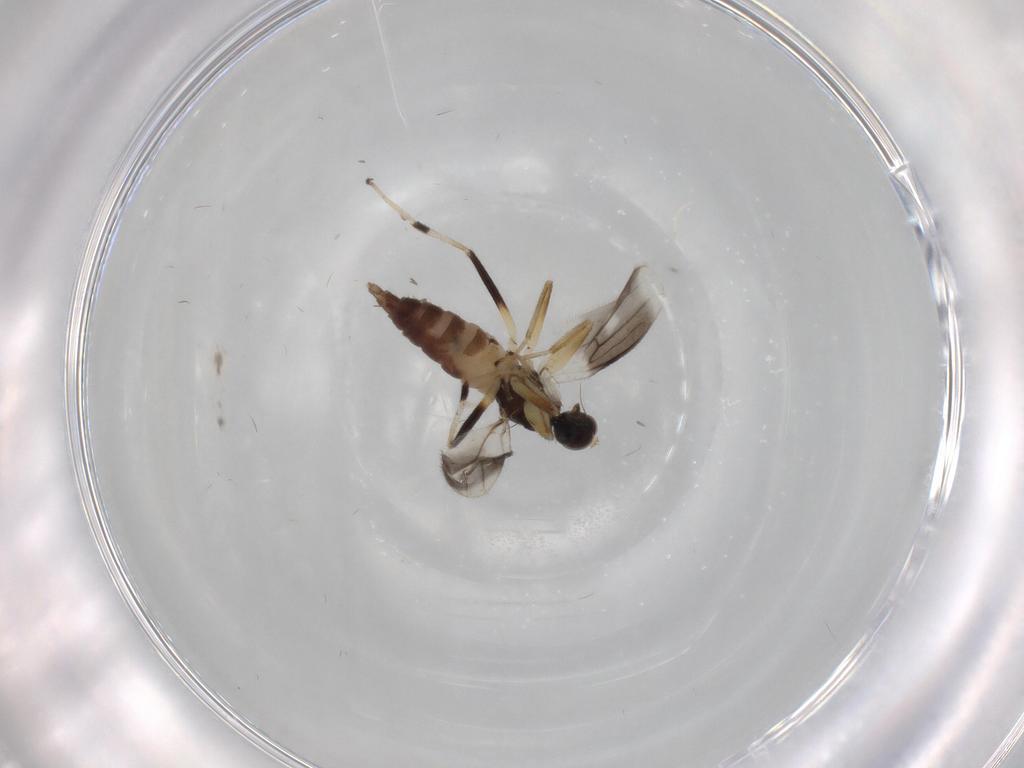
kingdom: Animalia
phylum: Arthropoda
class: Insecta
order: Diptera
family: Cecidomyiidae
